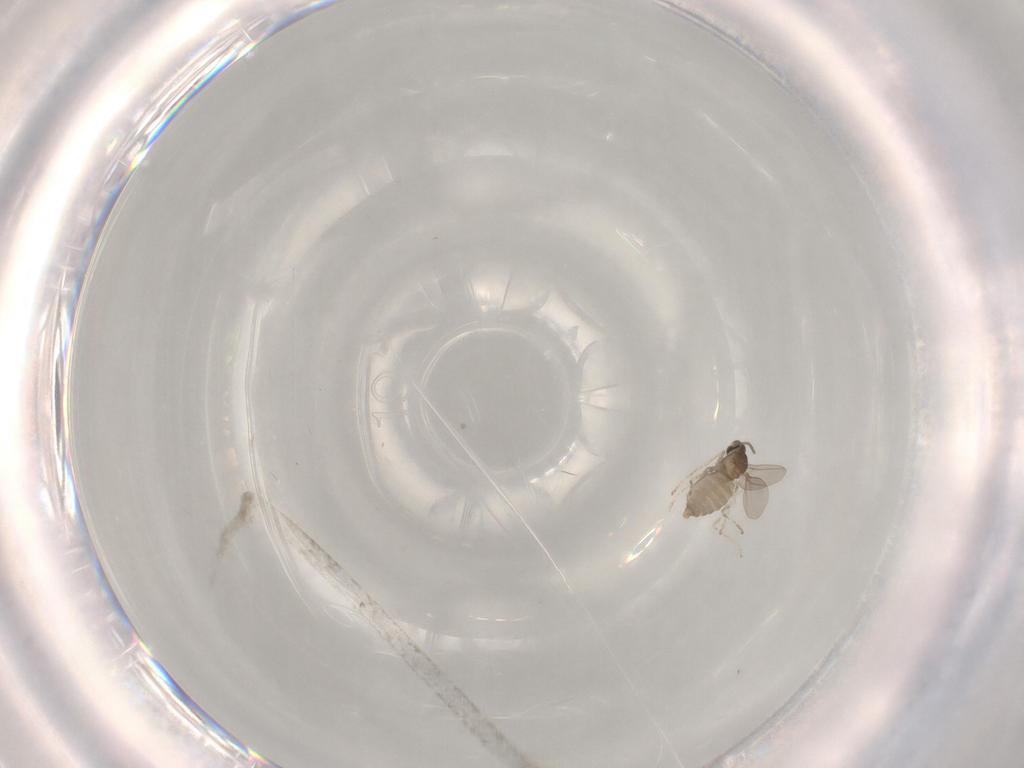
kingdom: Animalia
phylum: Arthropoda
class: Insecta
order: Diptera
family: Cecidomyiidae
